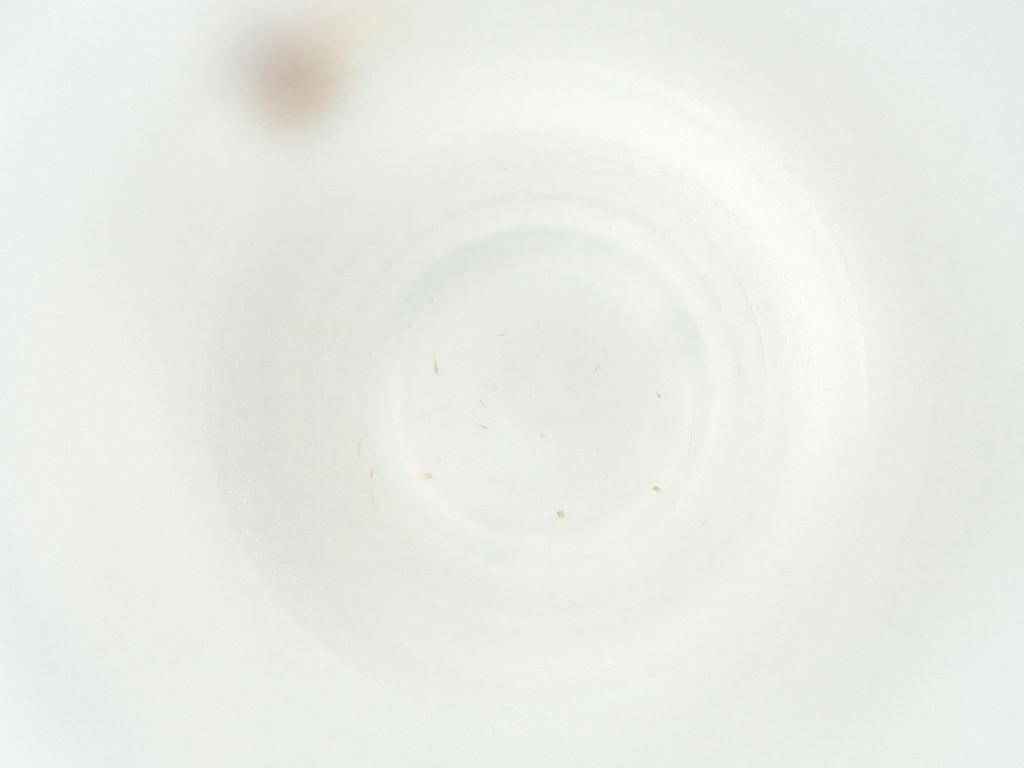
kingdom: Animalia
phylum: Arthropoda
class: Insecta
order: Diptera
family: Sciaridae
